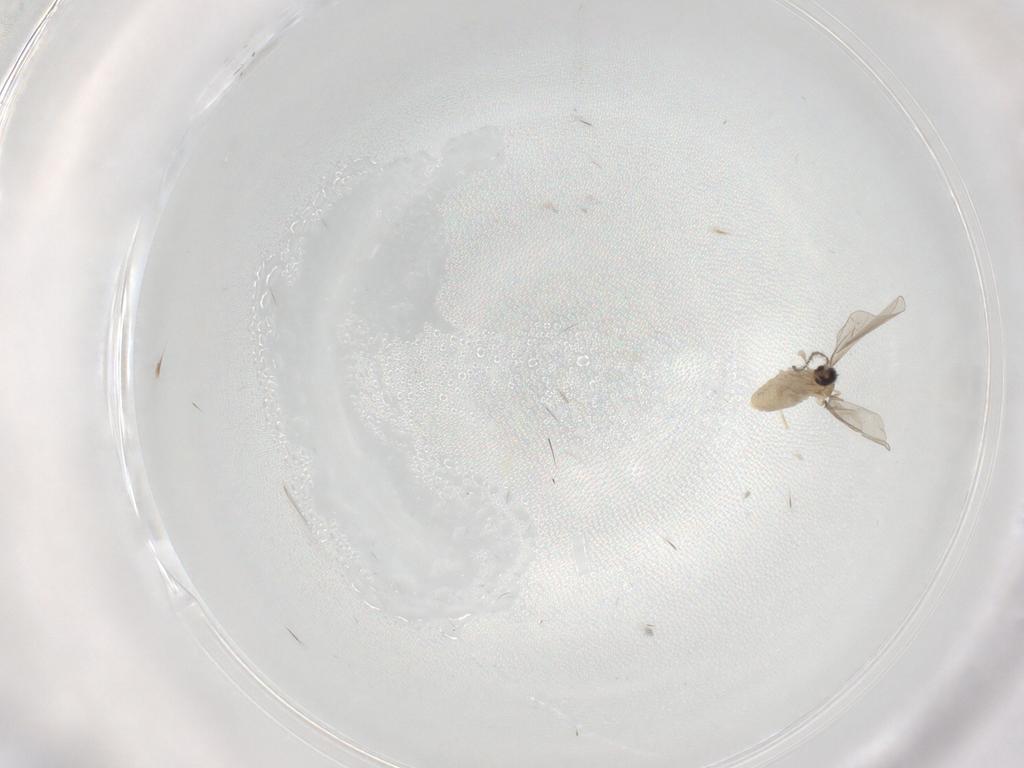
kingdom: Animalia
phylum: Arthropoda
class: Insecta
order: Diptera
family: Cecidomyiidae
